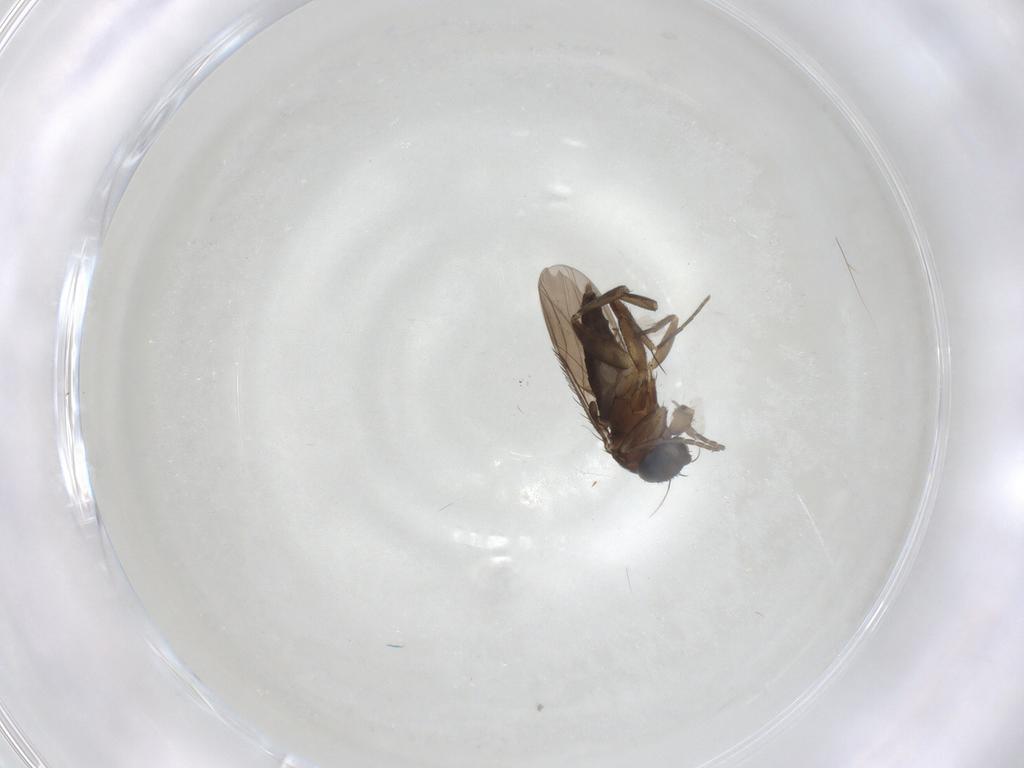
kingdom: Animalia
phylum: Arthropoda
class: Insecta
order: Diptera
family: Phoridae
